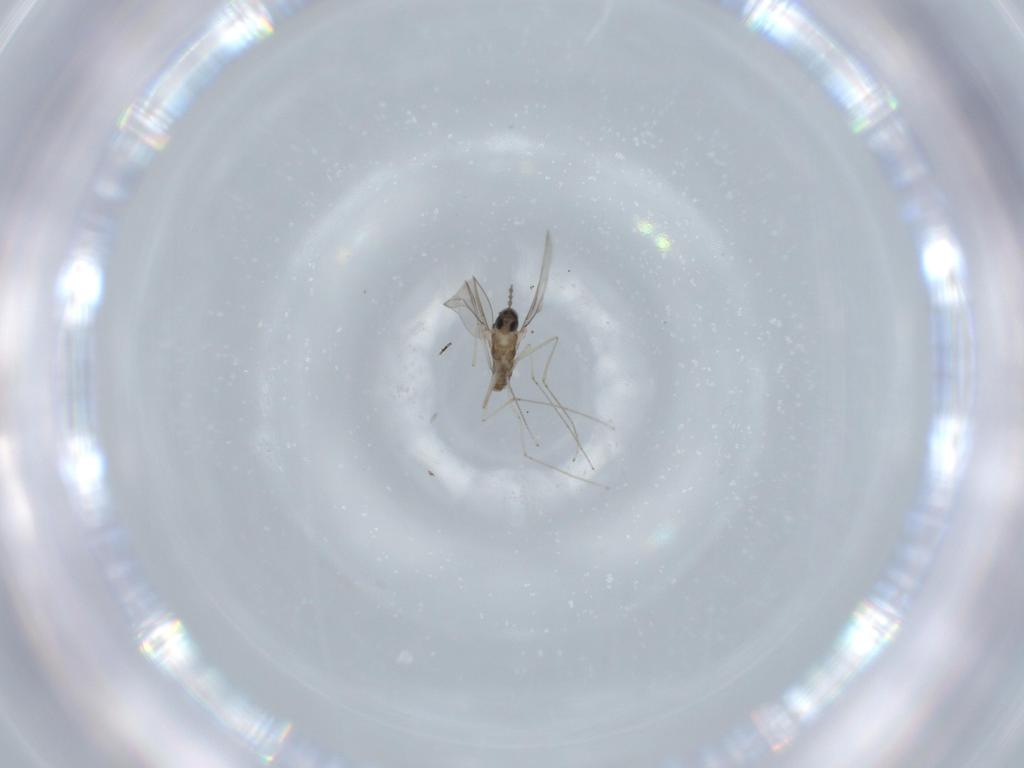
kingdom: Animalia
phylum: Arthropoda
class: Insecta
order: Diptera
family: Cecidomyiidae
